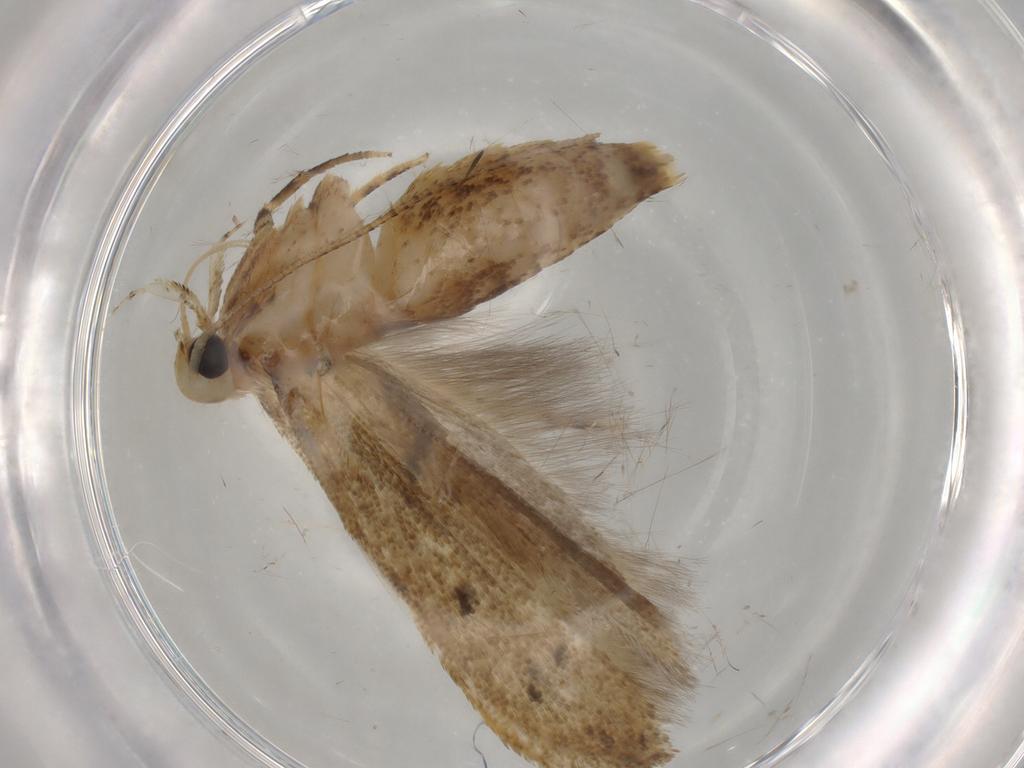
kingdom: Animalia
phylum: Arthropoda
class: Insecta
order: Lepidoptera
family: Gelechiidae
